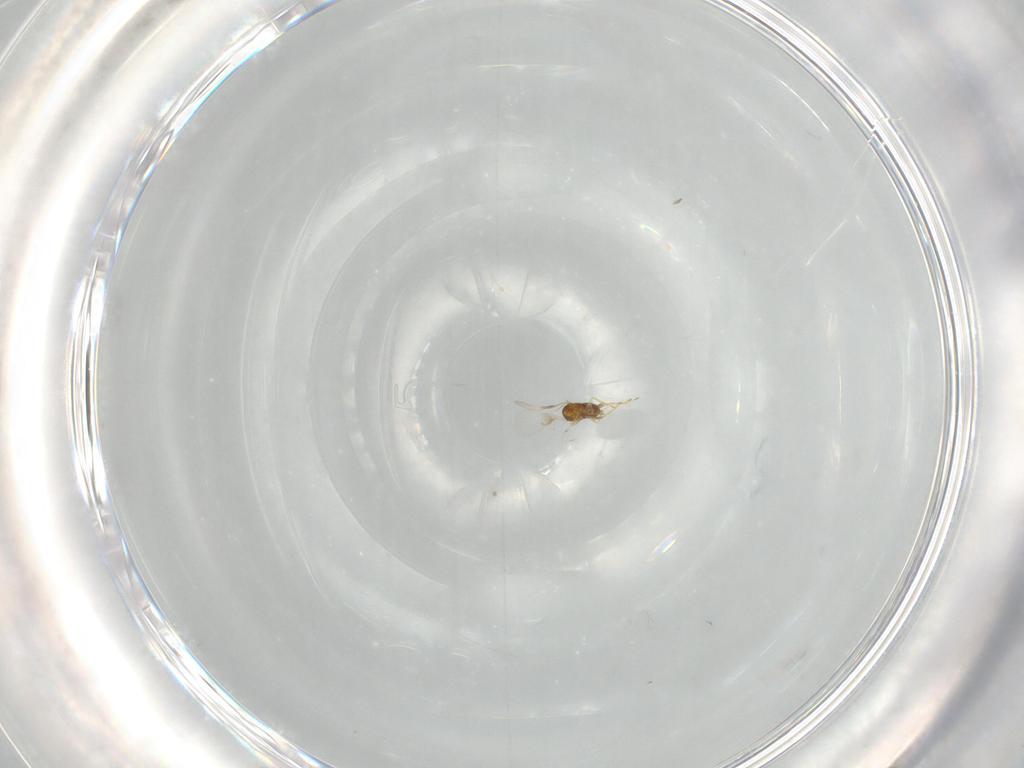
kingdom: Animalia
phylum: Arthropoda
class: Insecta
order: Hymenoptera
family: Trichogrammatidae
